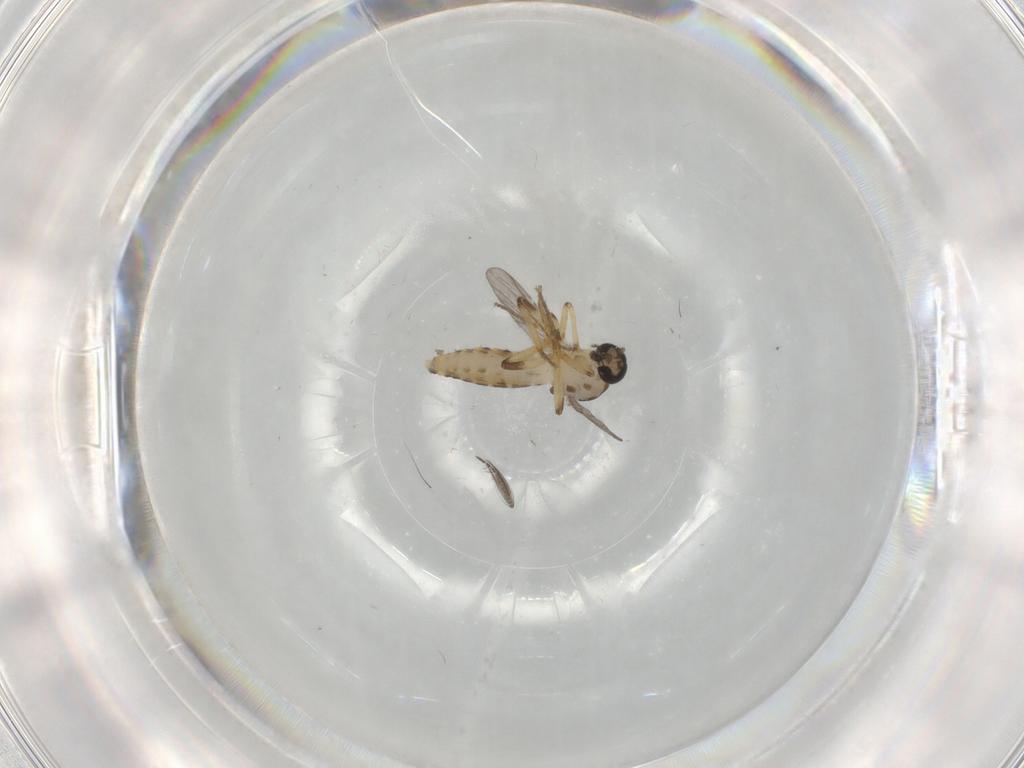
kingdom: Animalia
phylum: Arthropoda
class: Insecta
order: Diptera
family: Ceratopogonidae
